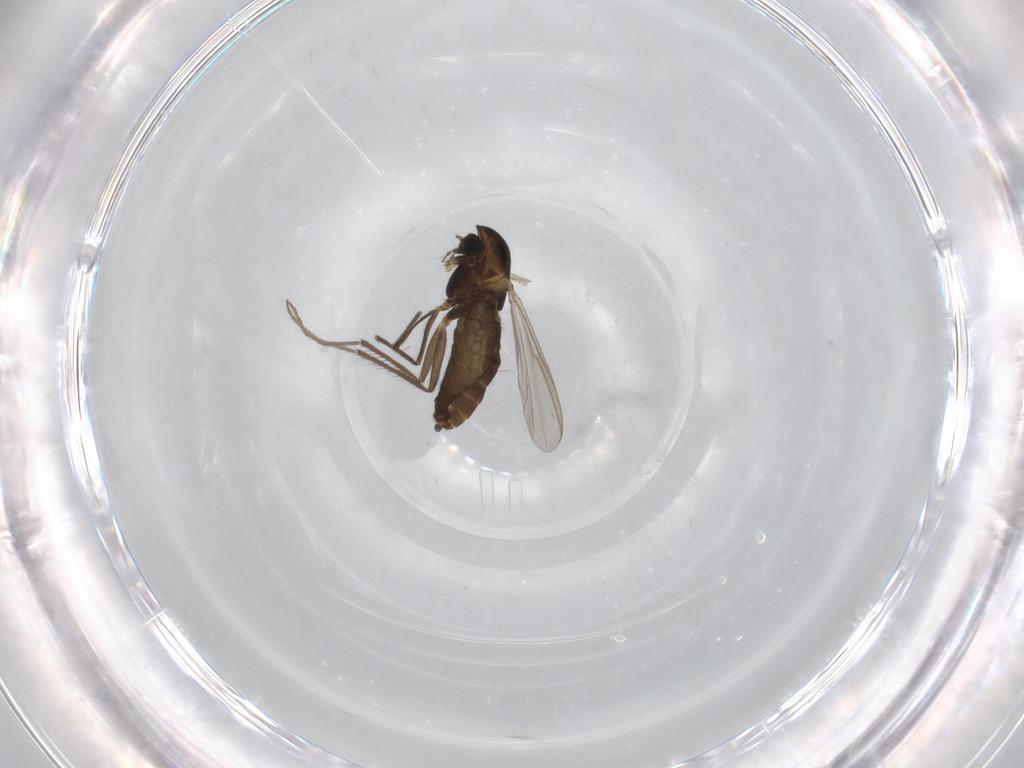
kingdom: Animalia
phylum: Arthropoda
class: Insecta
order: Diptera
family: Chironomidae
